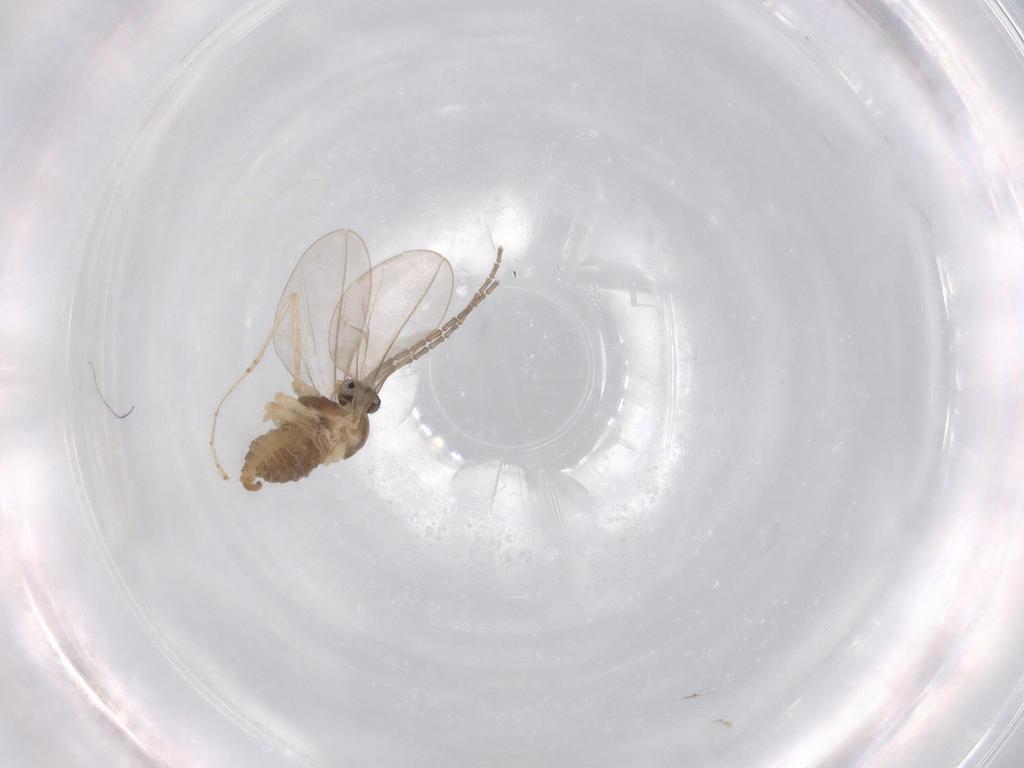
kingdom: Animalia
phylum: Arthropoda
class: Insecta
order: Diptera
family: Cecidomyiidae
